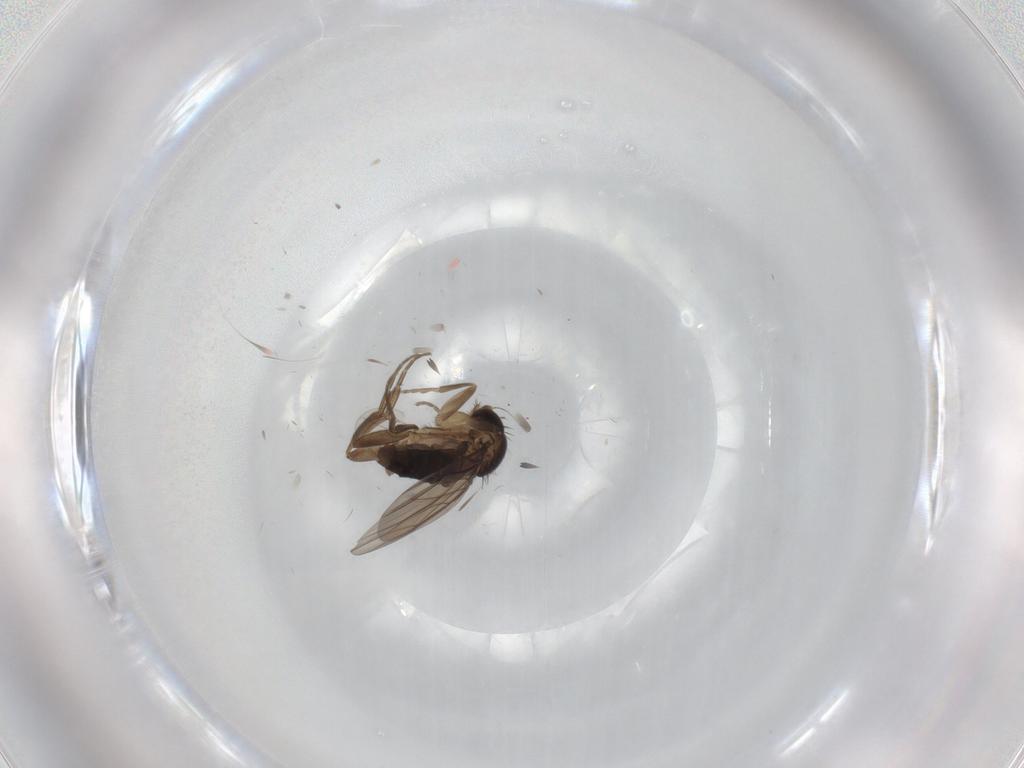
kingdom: Animalia
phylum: Arthropoda
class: Insecta
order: Diptera
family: Phoridae
